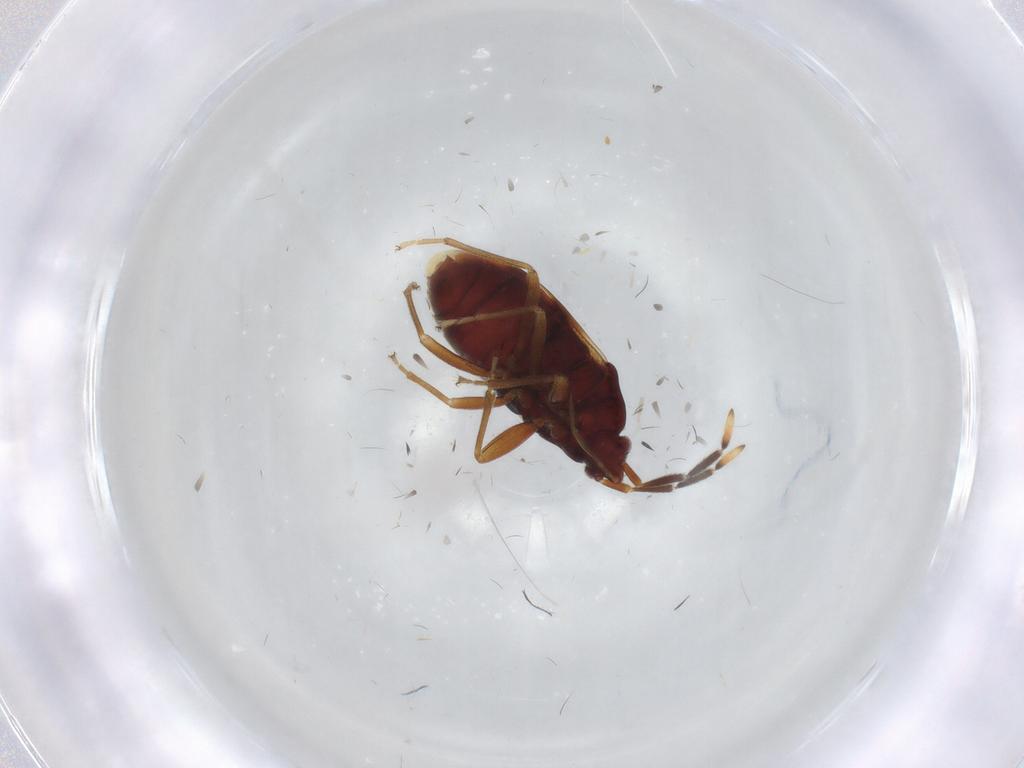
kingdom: Animalia
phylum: Arthropoda
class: Insecta
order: Hemiptera
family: Rhyparochromidae
